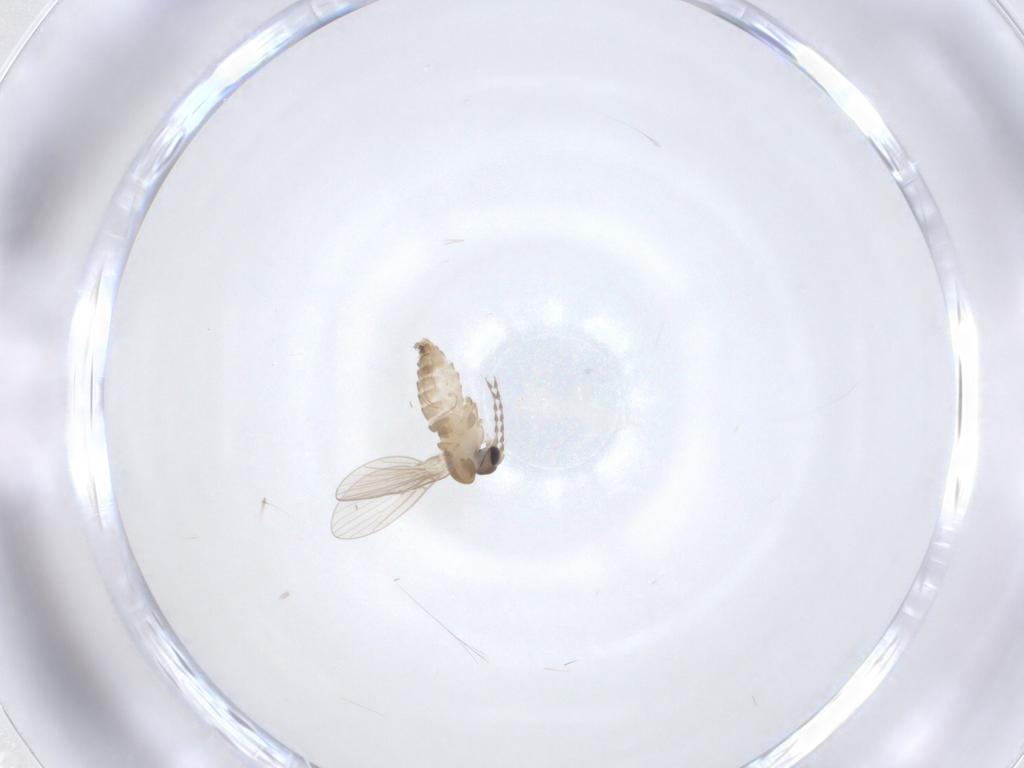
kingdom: Animalia
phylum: Arthropoda
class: Insecta
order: Diptera
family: Psychodidae
